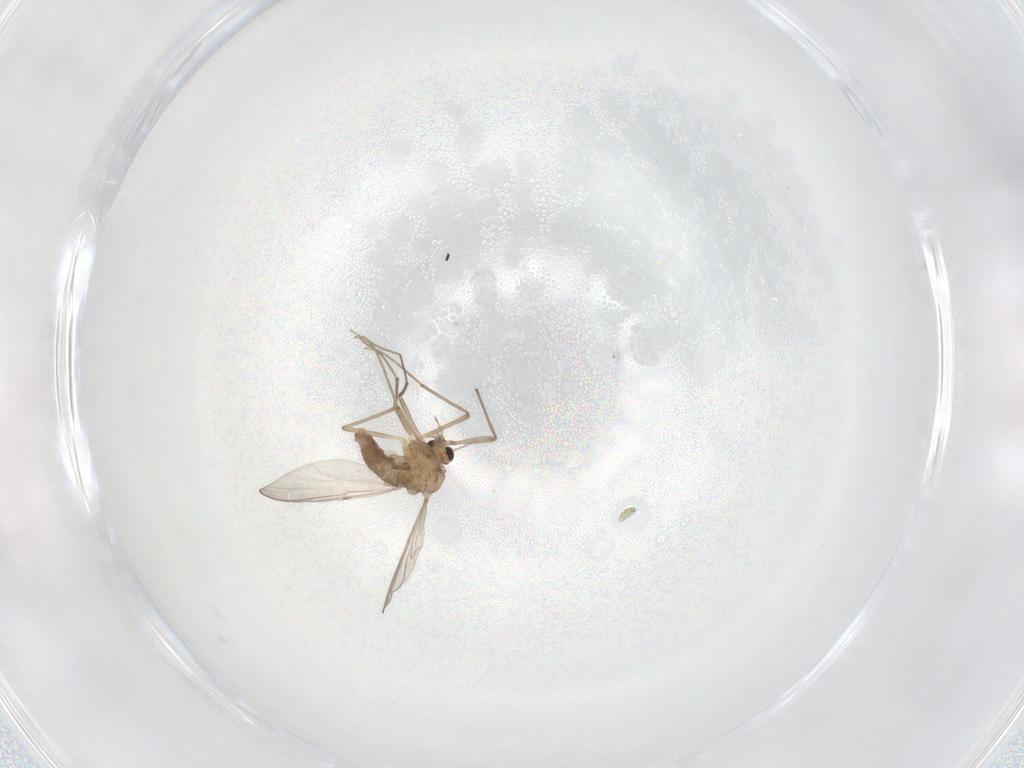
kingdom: Animalia
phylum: Arthropoda
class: Insecta
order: Diptera
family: Chironomidae
